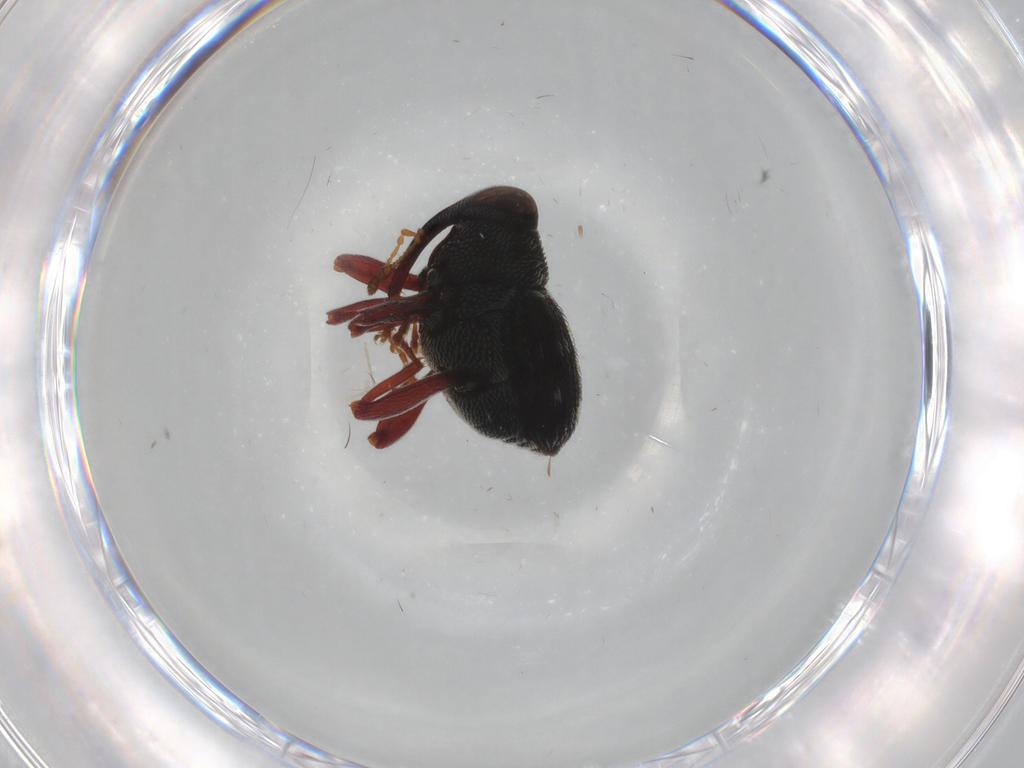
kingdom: Animalia
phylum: Arthropoda
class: Insecta
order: Coleoptera
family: Curculionidae
